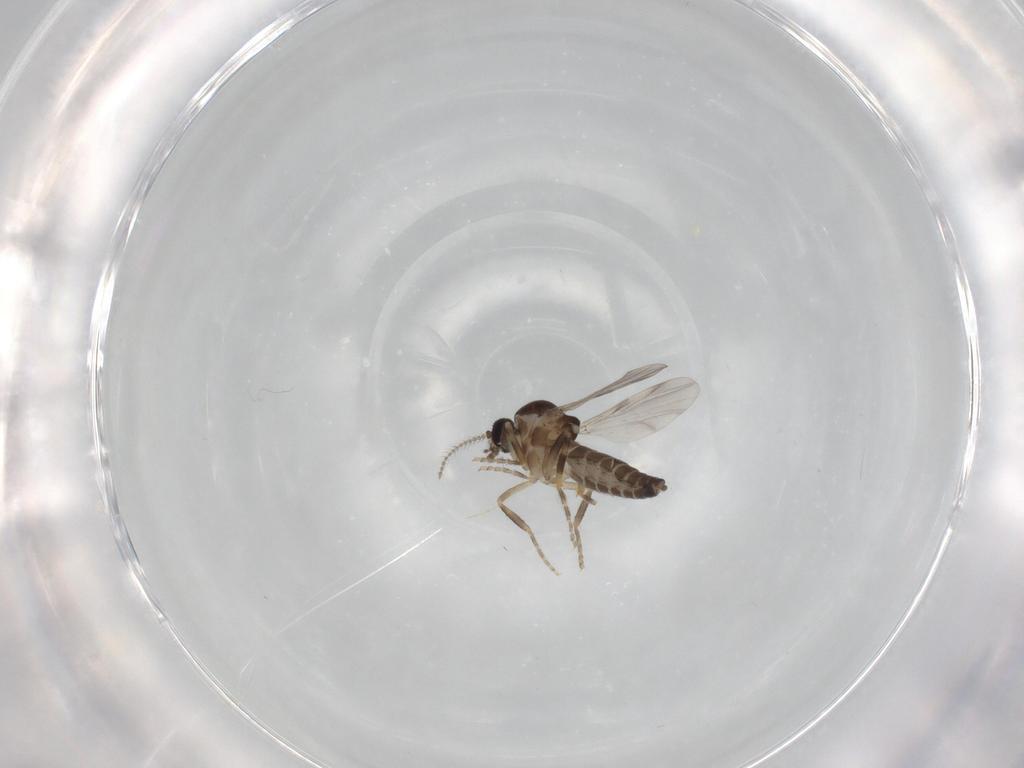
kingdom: Animalia
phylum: Arthropoda
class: Insecta
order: Diptera
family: Ceratopogonidae
